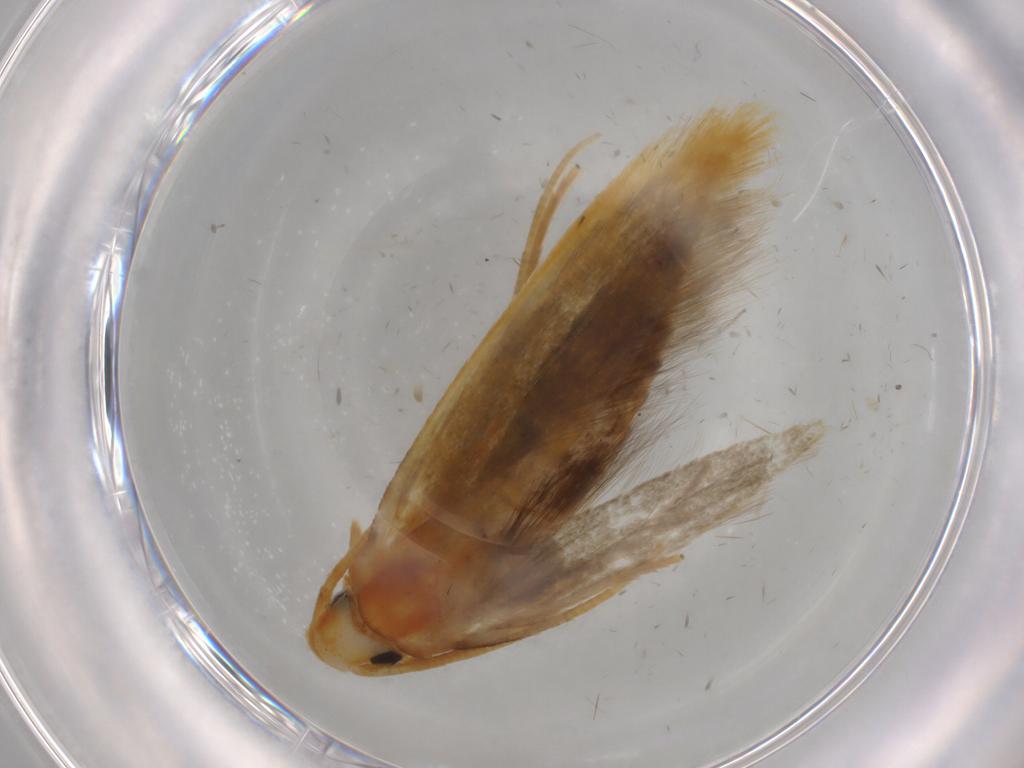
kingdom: Animalia
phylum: Arthropoda
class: Insecta
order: Lepidoptera
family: Tineidae
